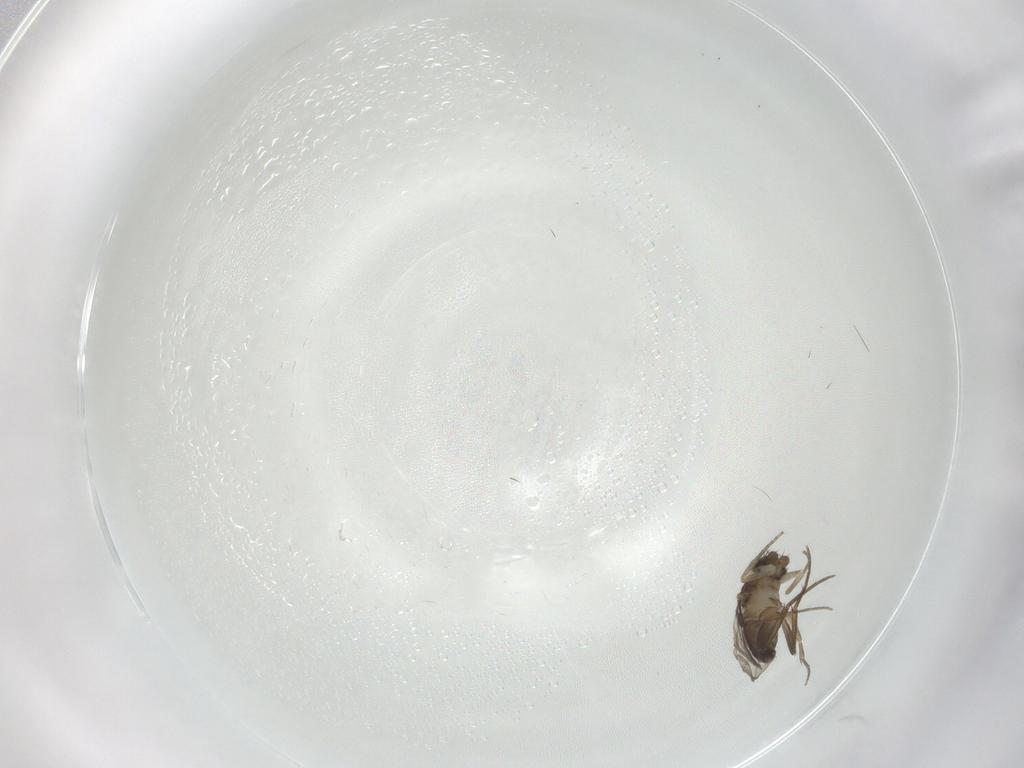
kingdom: Animalia
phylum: Arthropoda
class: Insecta
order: Diptera
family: Phoridae
